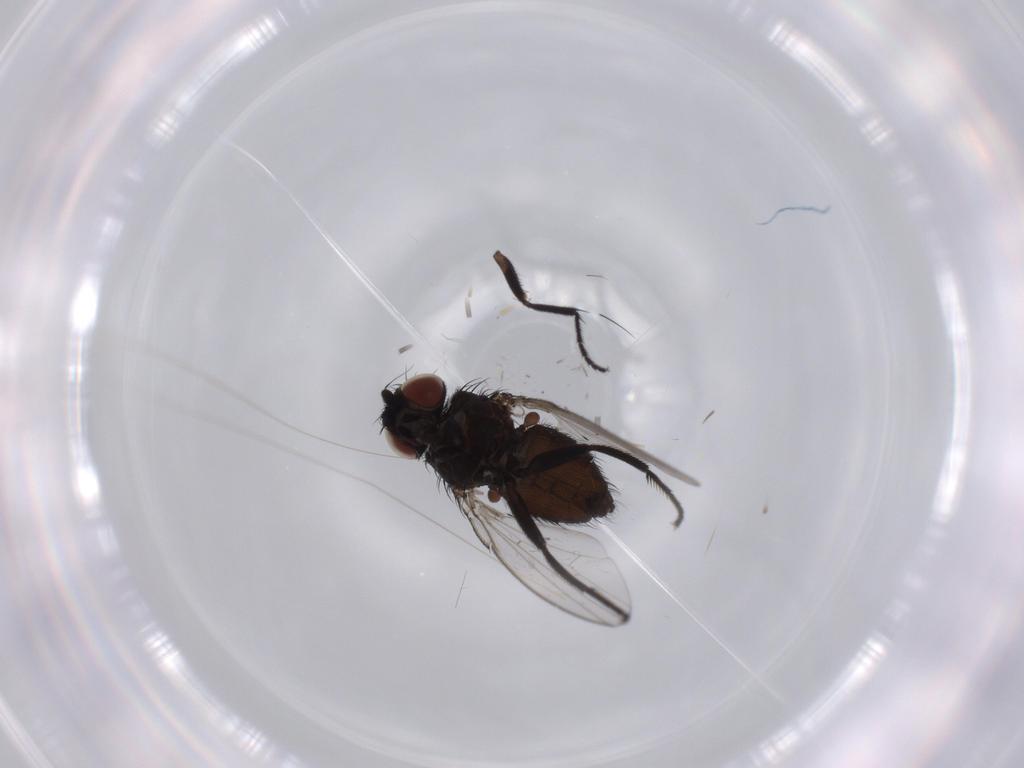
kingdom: Animalia
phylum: Arthropoda
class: Insecta
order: Diptera
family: Milichiidae
